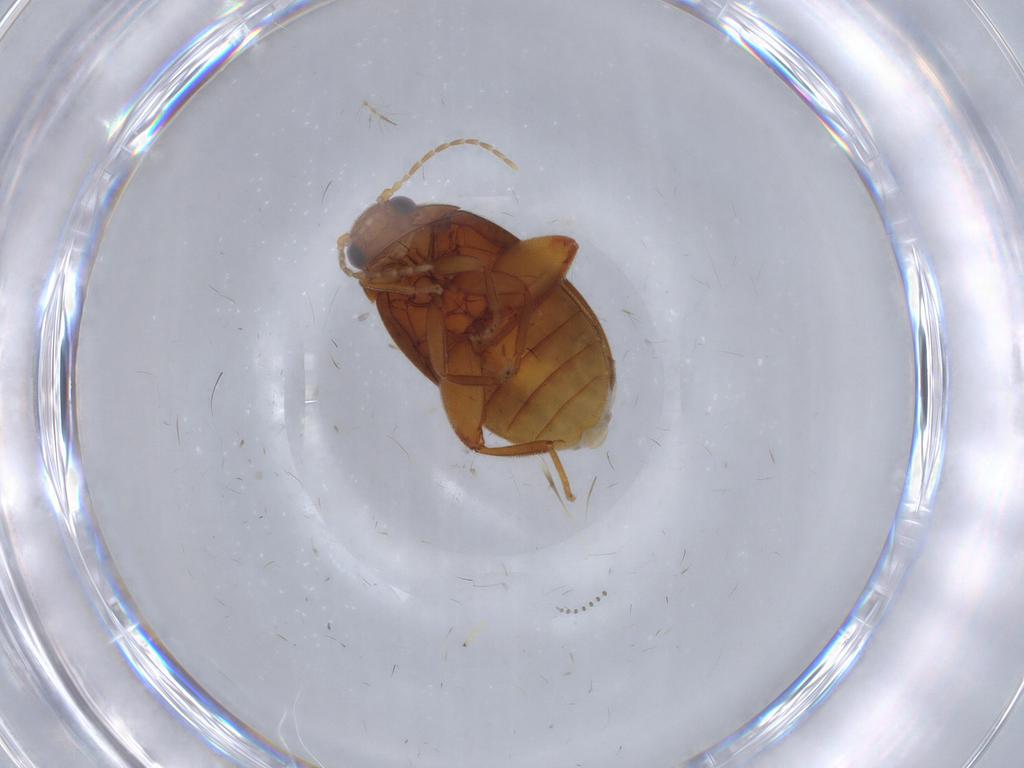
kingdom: Animalia
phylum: Arthropoda
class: Insecta
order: Coleoptera
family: Scirtidae
